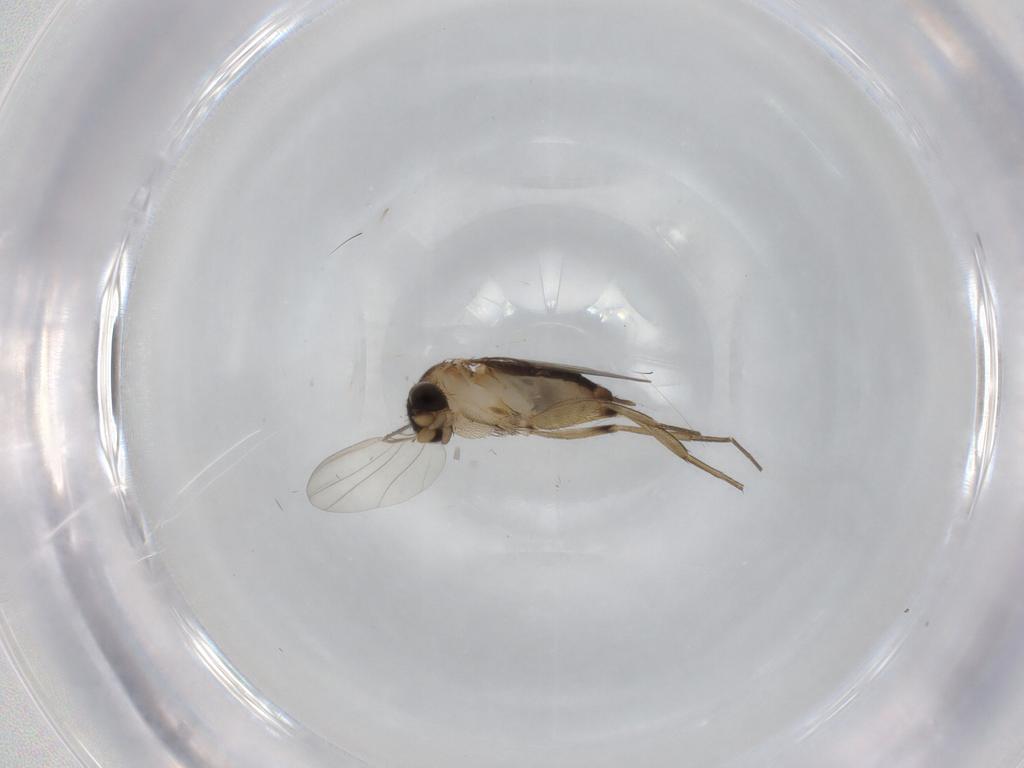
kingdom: Animalia
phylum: Arthropoda
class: Insecta
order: Diptera
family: Phoridae
